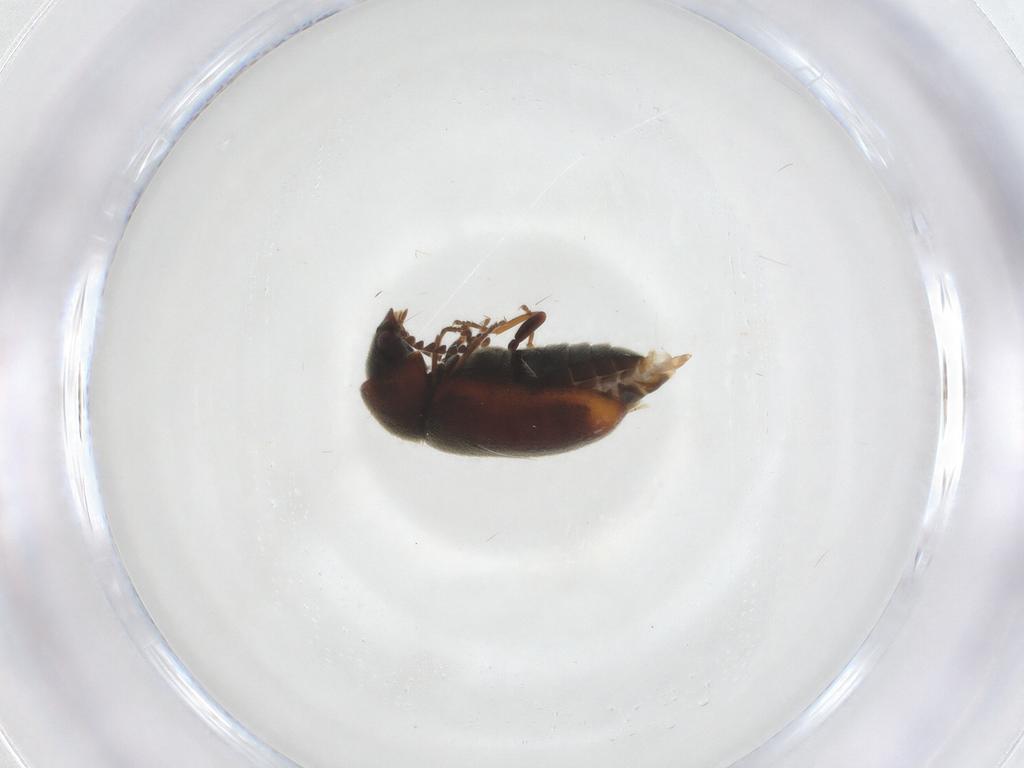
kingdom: Animalia
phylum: Arthropoda
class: Insecta
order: Coleoptera
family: Ptinidae
